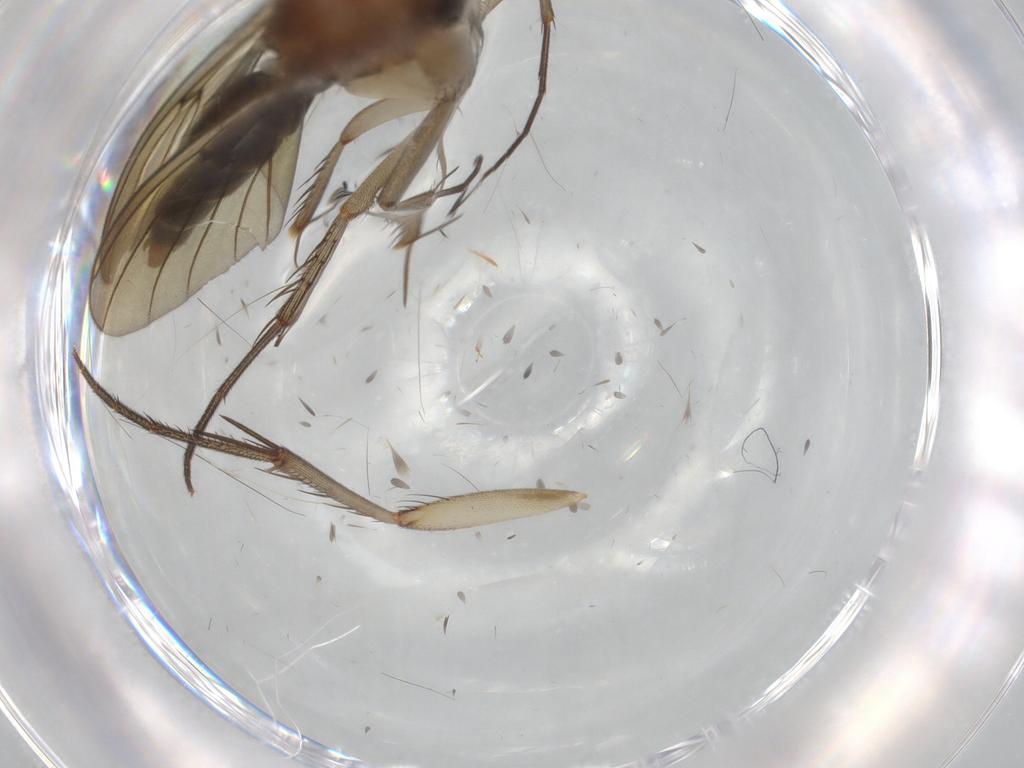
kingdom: Animalia
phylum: Arthropoda
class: Insecta
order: Diptera
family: Mycetophilidae
